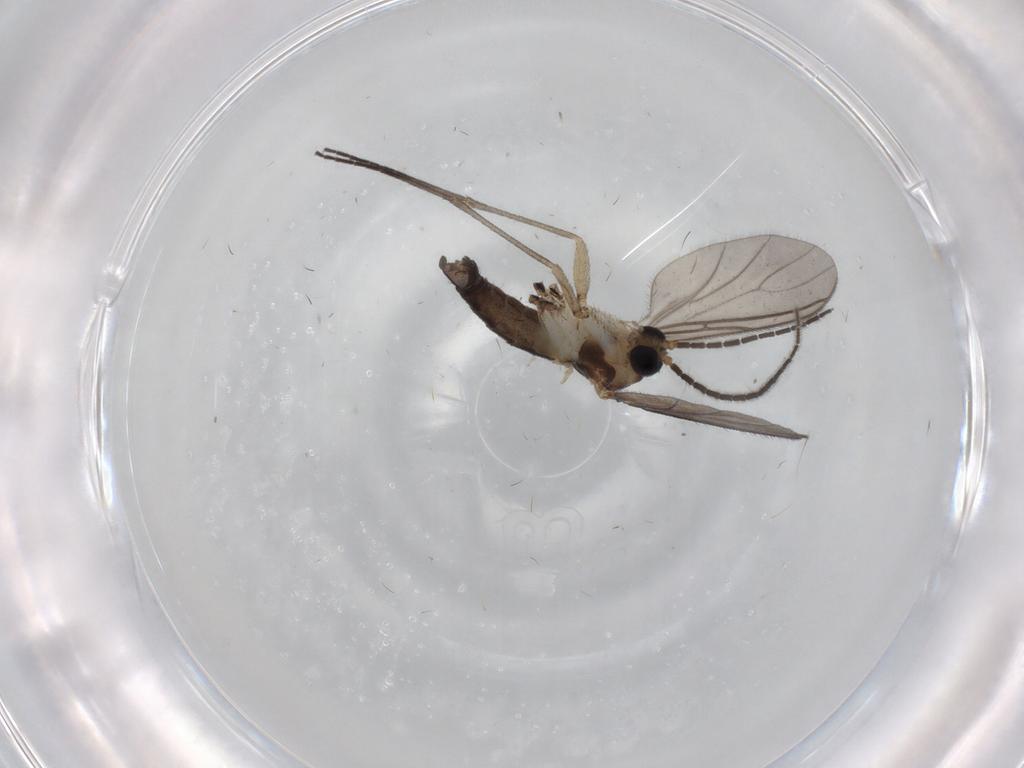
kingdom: Animalia
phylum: Arthropoda
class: Insecta
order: Diptera
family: Sciaridae
